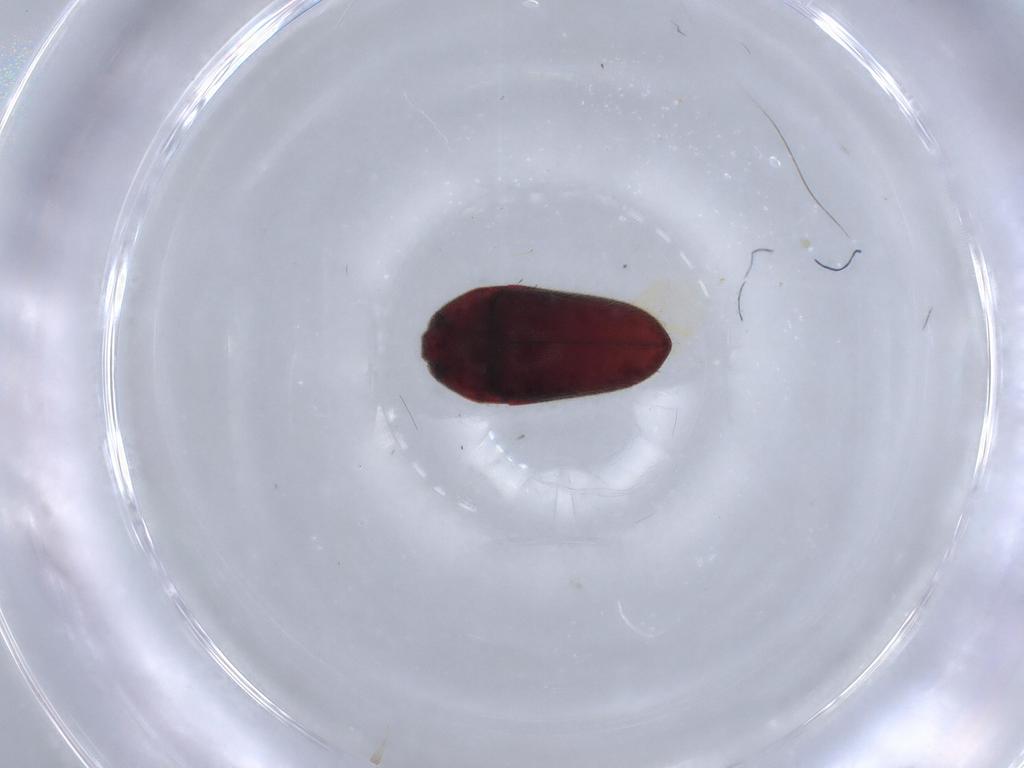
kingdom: Animalia
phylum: Arthropoda
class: Insecta
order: Coleoptera
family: Throscidae
